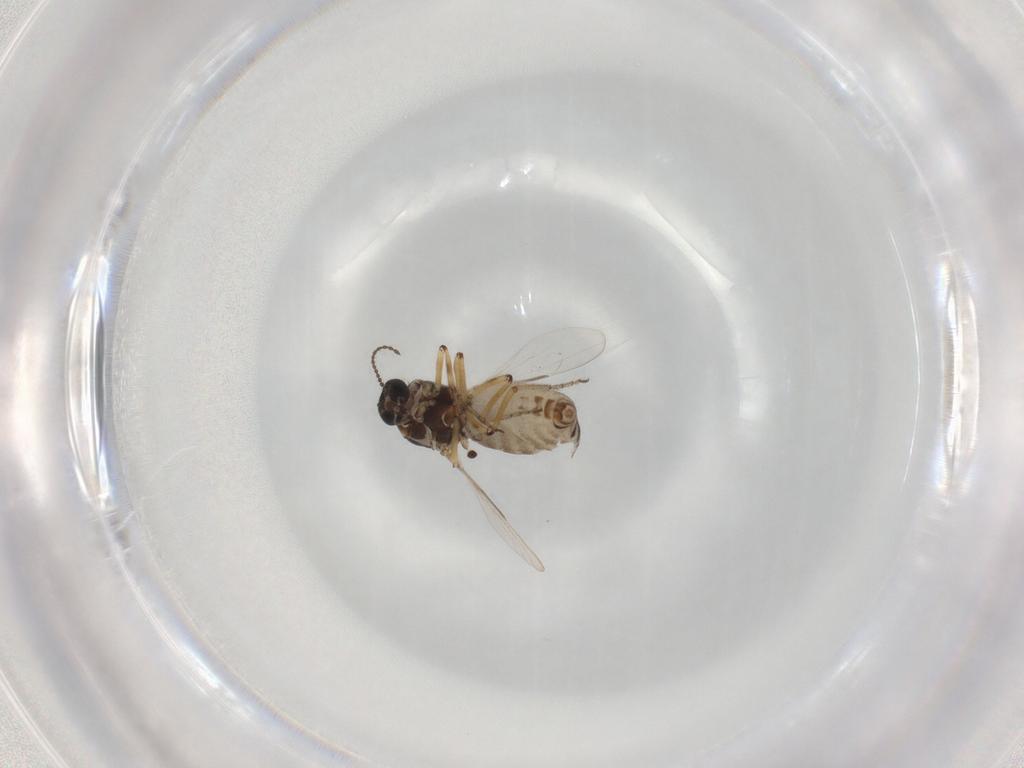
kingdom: Animalia
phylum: Arthropoda
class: Insecta
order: Diptera
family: Ceratopogonidae
